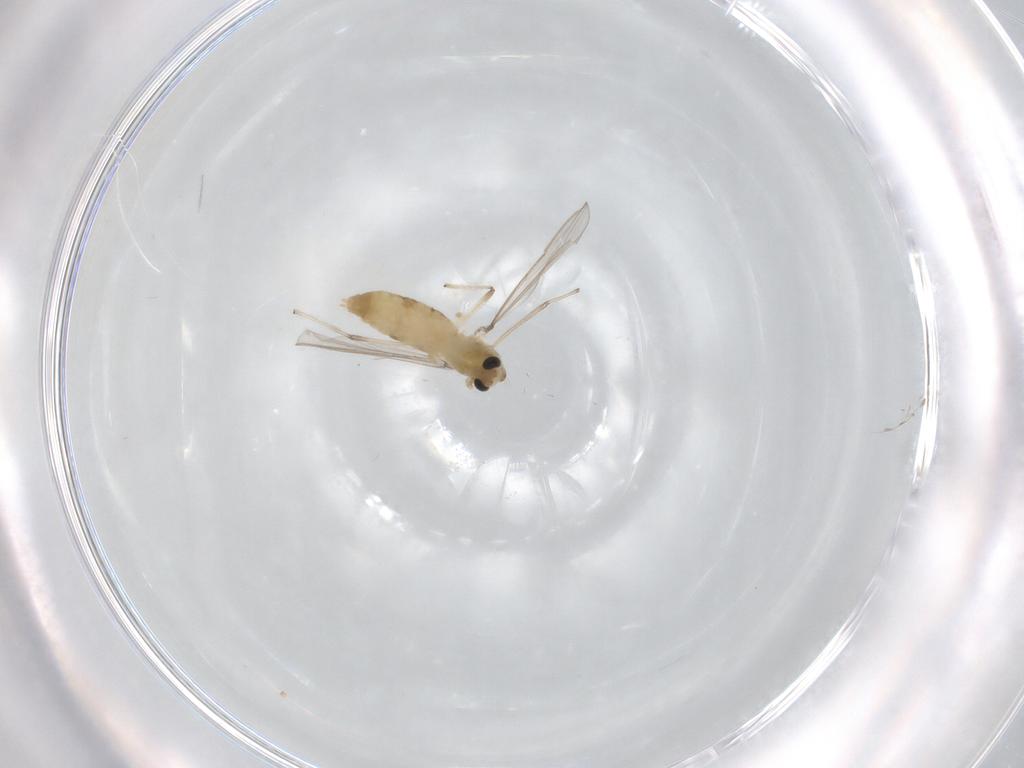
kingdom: Animalia
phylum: Arthropoda
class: Insecta
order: Diptera
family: Chironomidae
